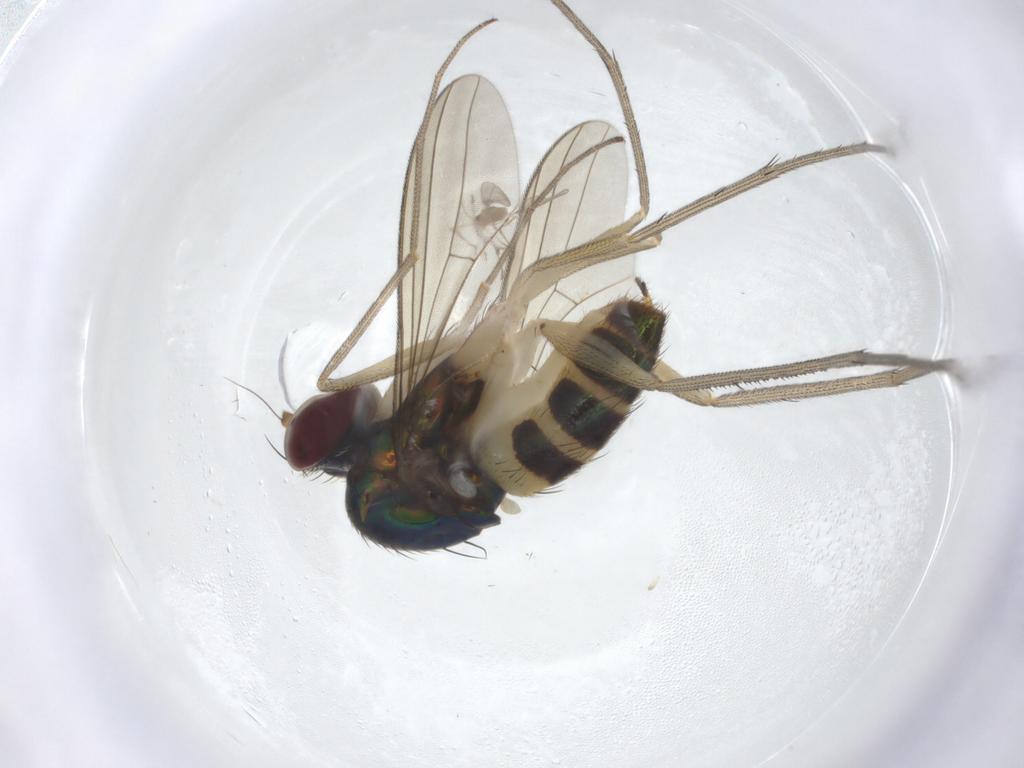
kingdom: Animalia
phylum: Arthropoda
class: Insecta
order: Diptera
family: Dolichopodidae
